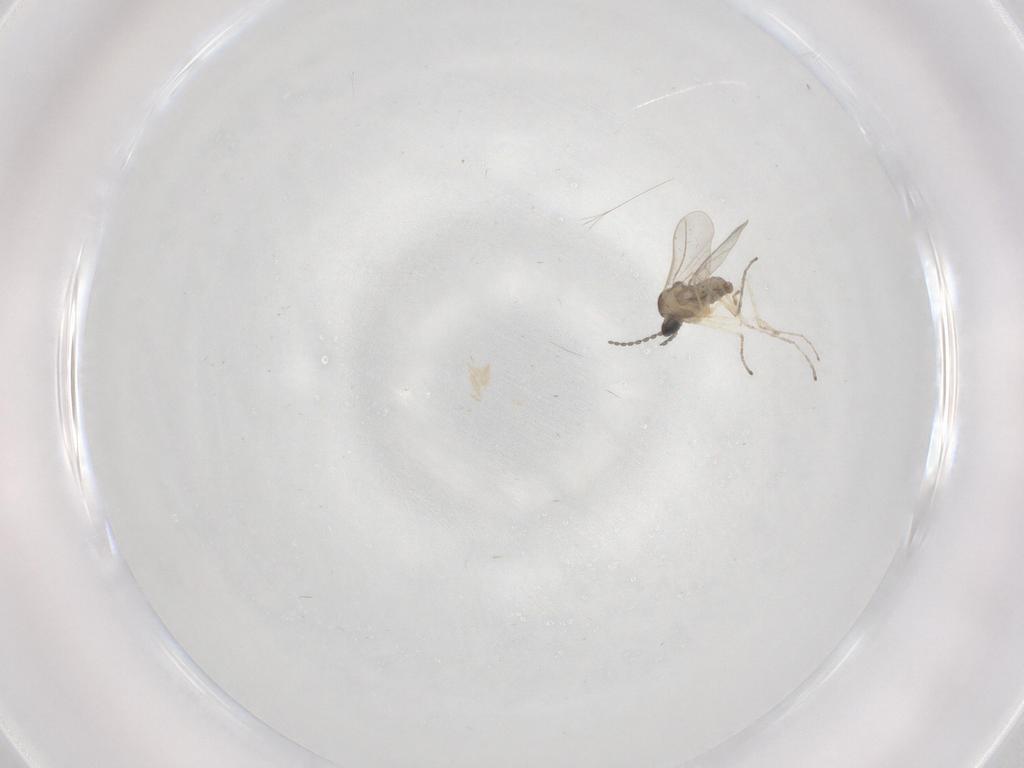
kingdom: Animalia
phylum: Arthropoda
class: Insecta
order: Diptera
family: Cecidomyiidae
